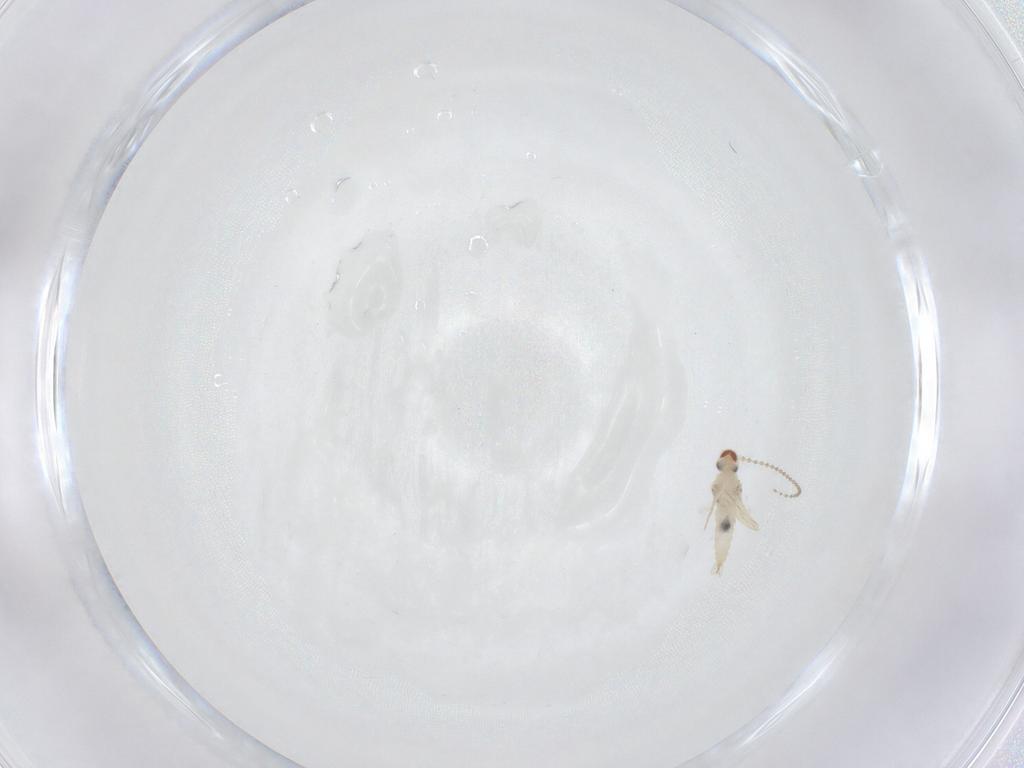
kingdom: Animalia
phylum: Arthropoda
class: Insecta
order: Diptera
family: Cecidomyiidae
